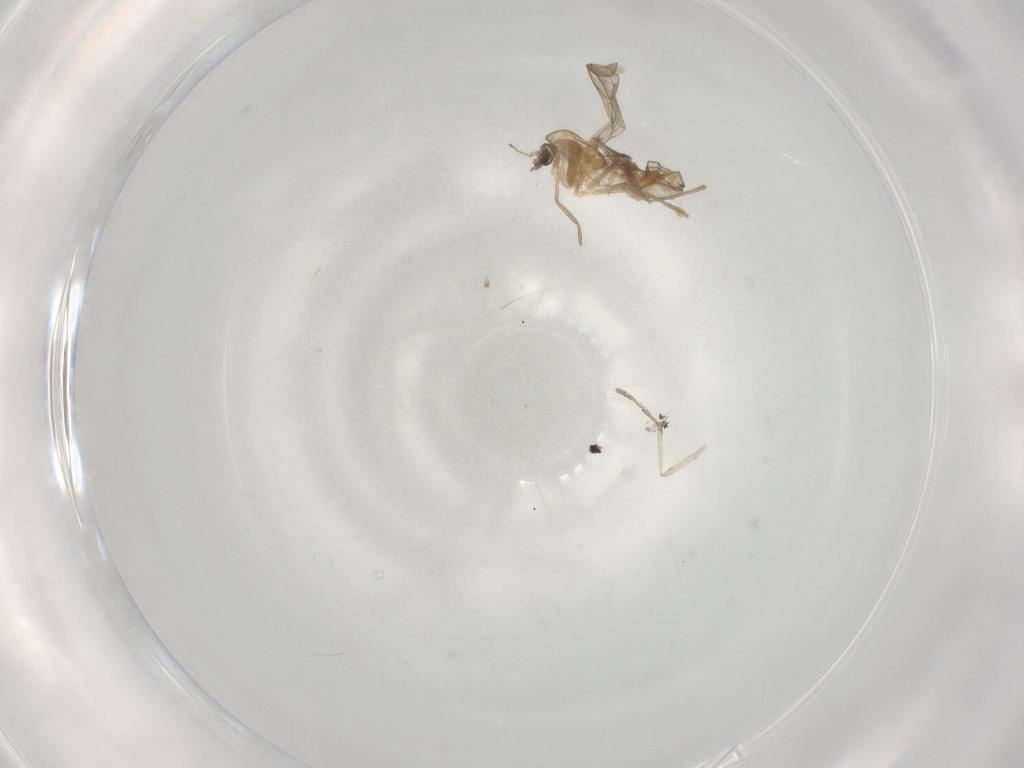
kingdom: Animalia
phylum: Arthropoda
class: Insecta
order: Diptera
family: Chironomidae
